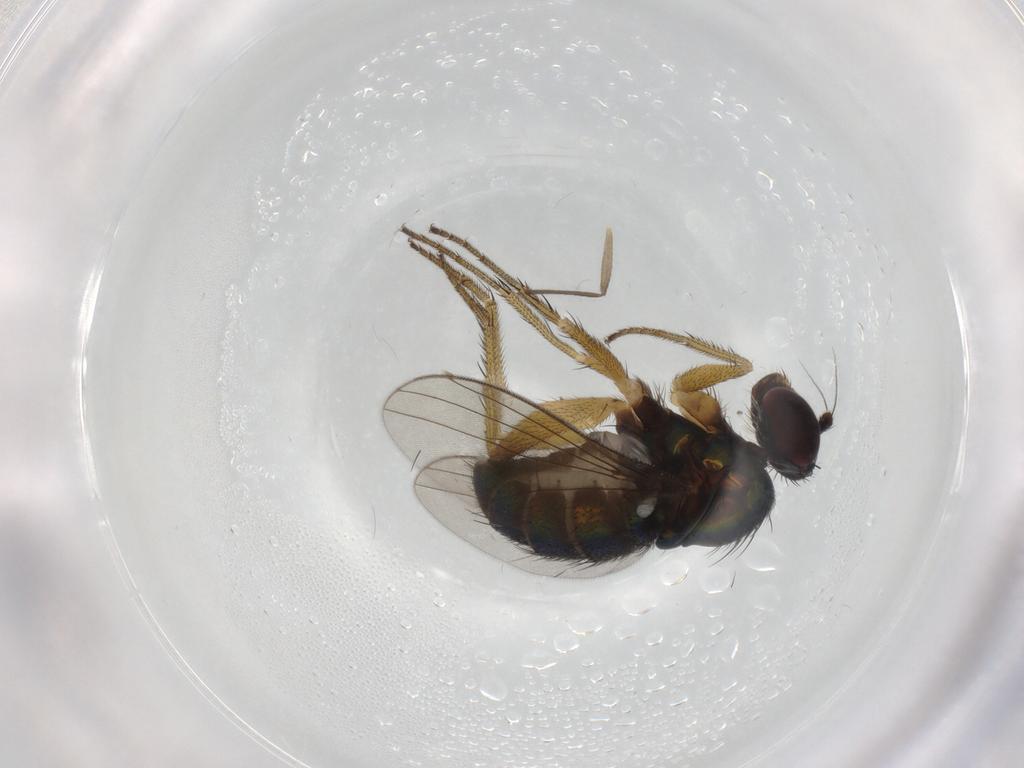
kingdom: Animalia
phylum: Arthropoda
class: Insecta
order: Diptera
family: Dolichopodidae
